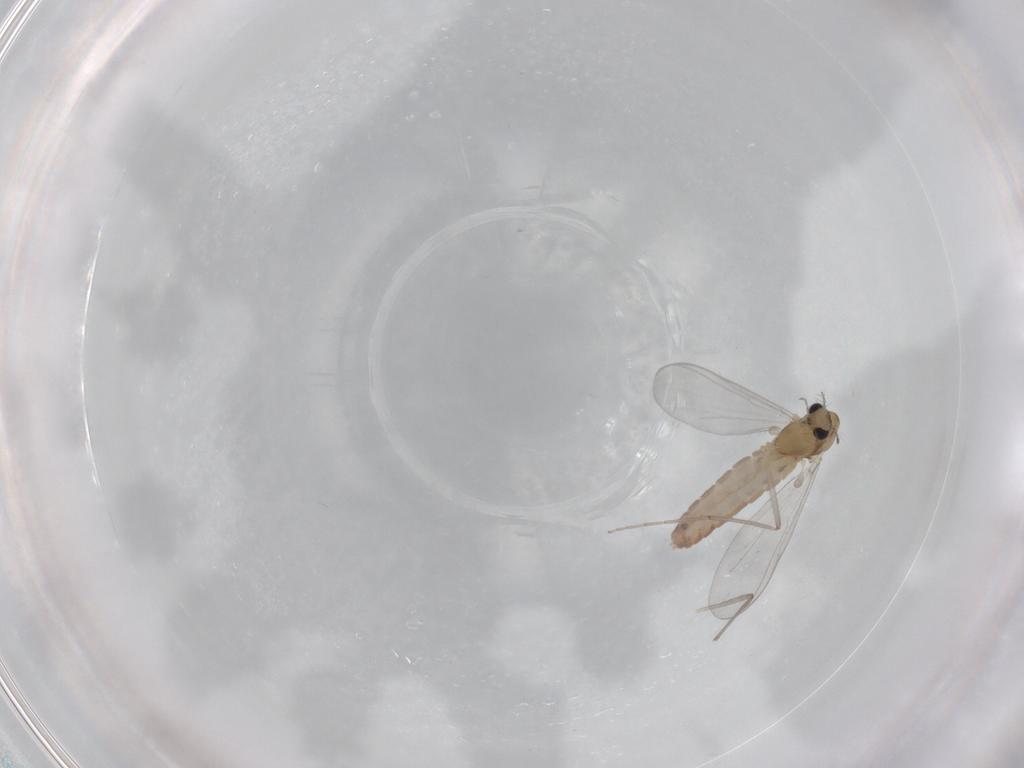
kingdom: Animalia
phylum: Arthropoda
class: Insecta
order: Diptera
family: Chironomidae
